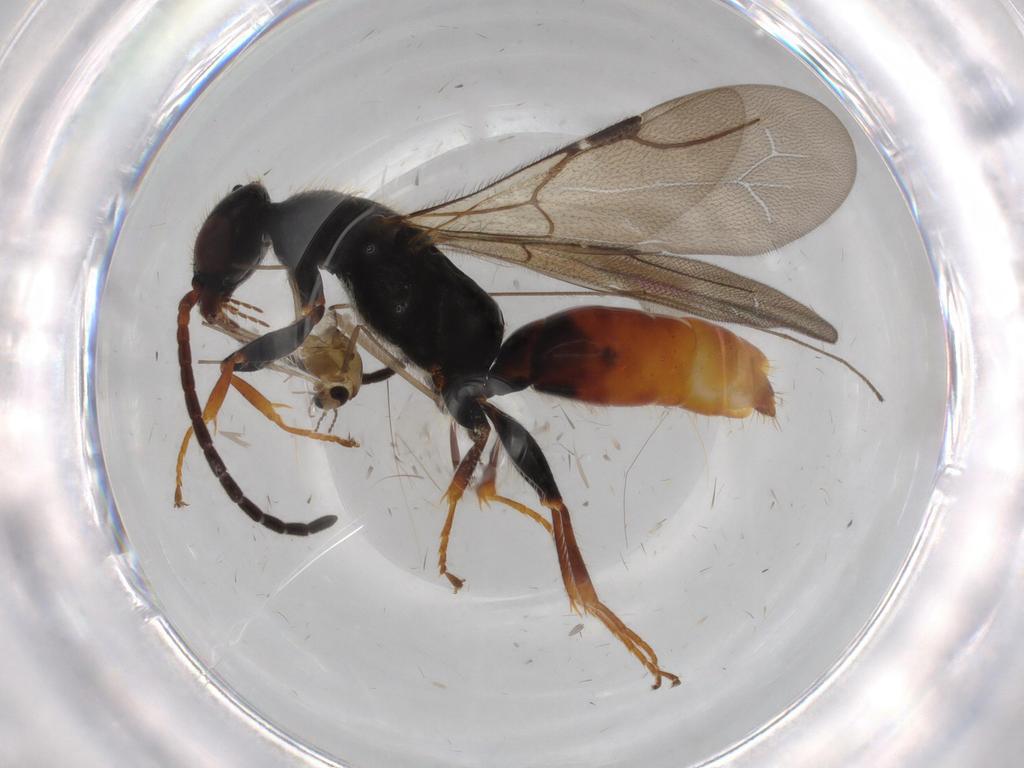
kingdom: Animalia
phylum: Arthropoda
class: Insecta
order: Hymenoptera
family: Bethylidae
